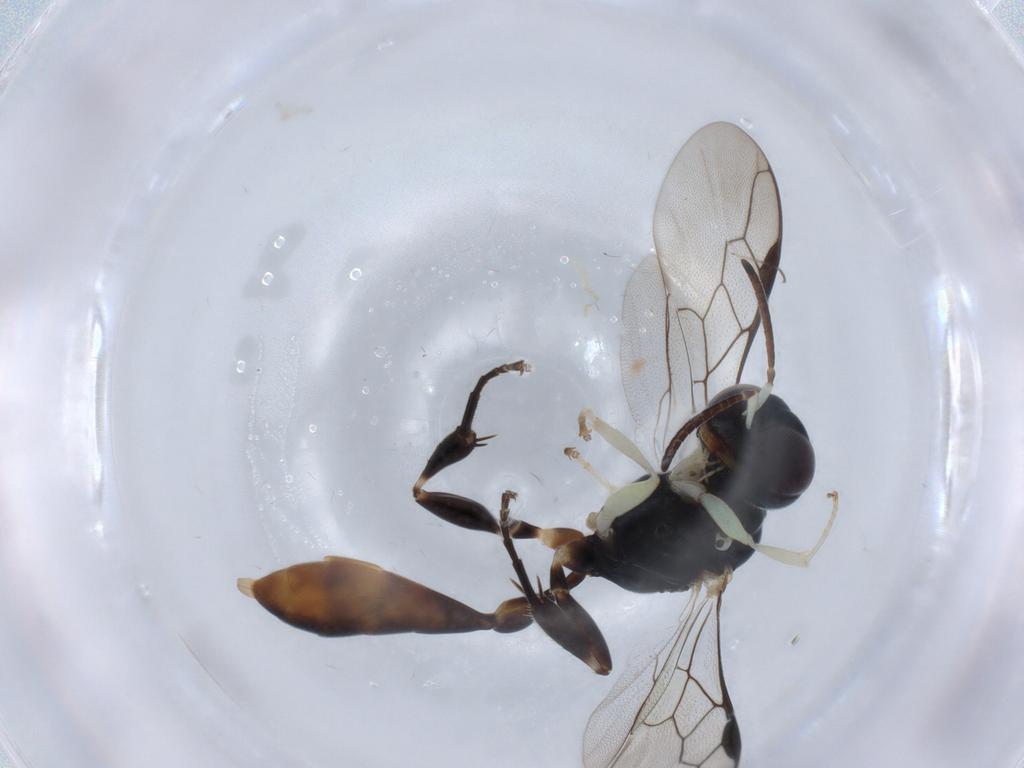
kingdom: Animalia
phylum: Arthropoda
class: Insecta
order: Hymenoptera
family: Crabronidae
